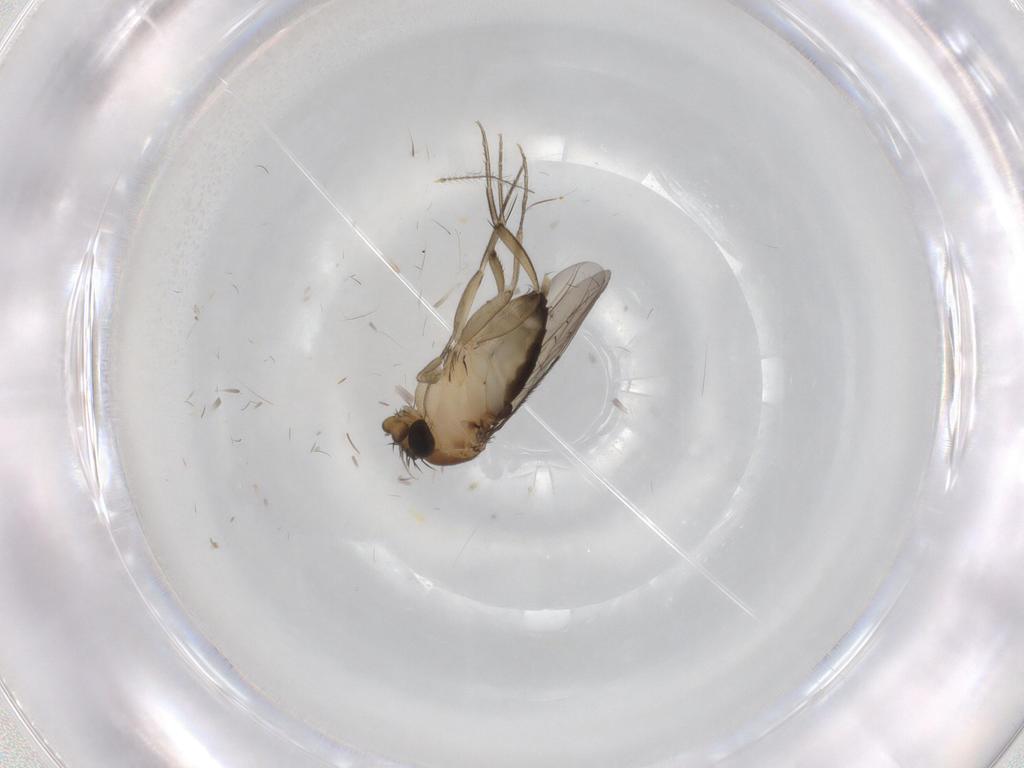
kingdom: Animalia
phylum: Arthropoda
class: Insecta
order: Diptera
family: Phoridae
